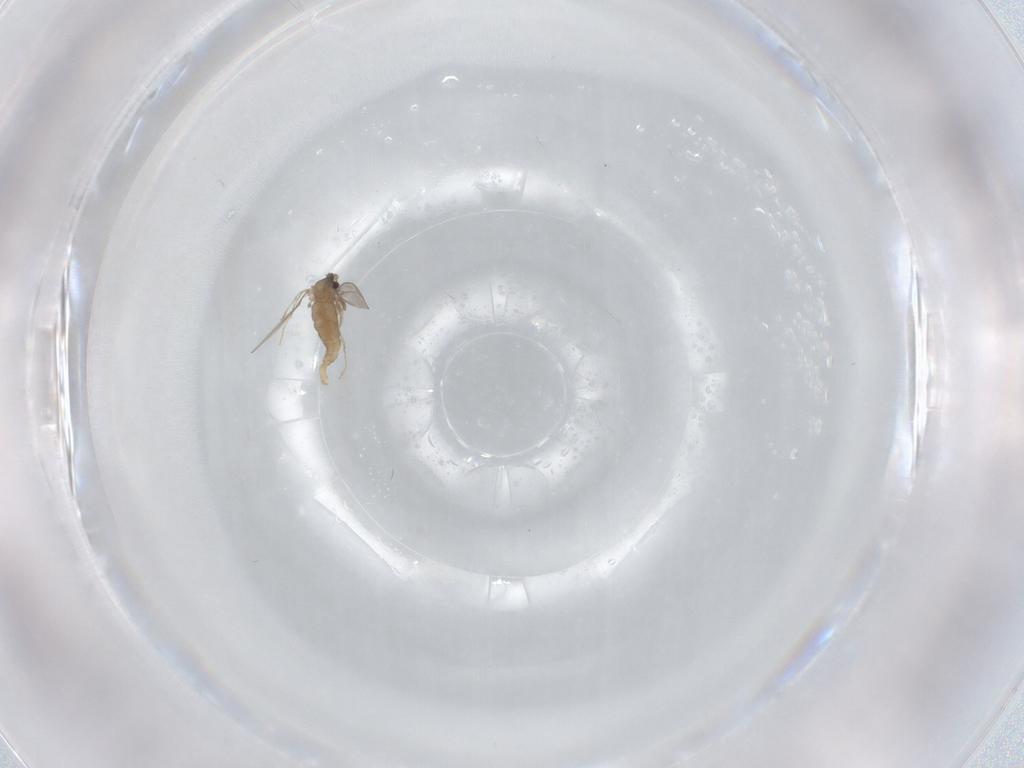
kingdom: Animalia
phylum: Arthropoda
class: Insecta
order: Diptera
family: Cecidomyiidae
